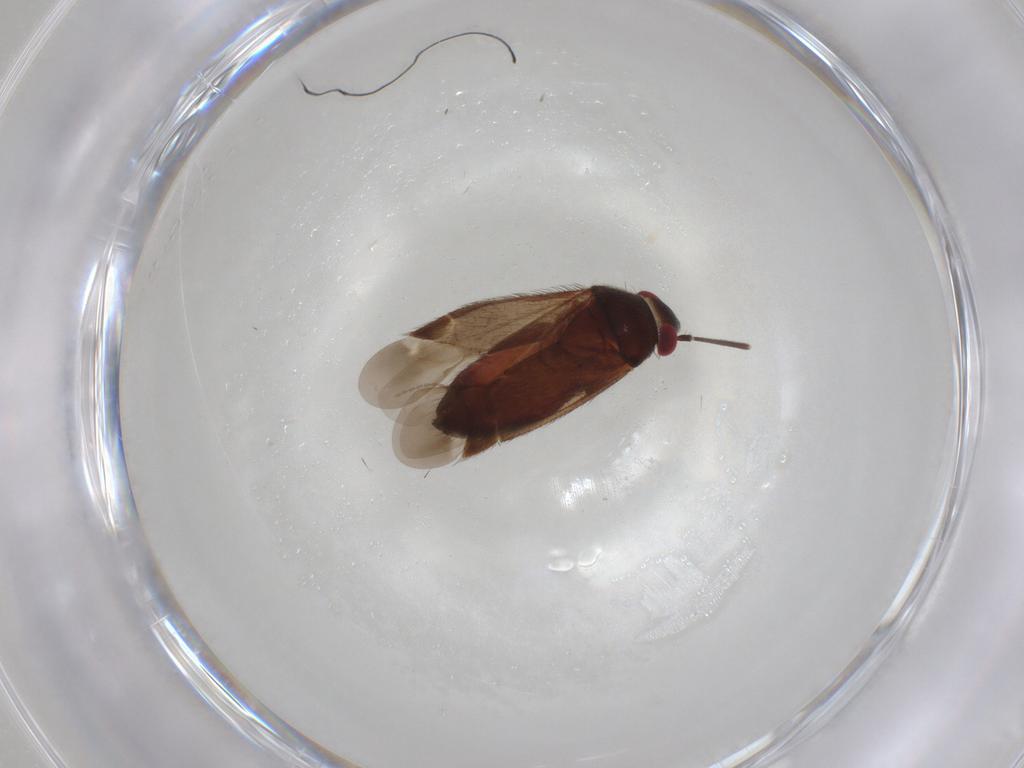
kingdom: Animalia
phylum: Arthropoda
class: Insecta
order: Hemiptera
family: Miridae
